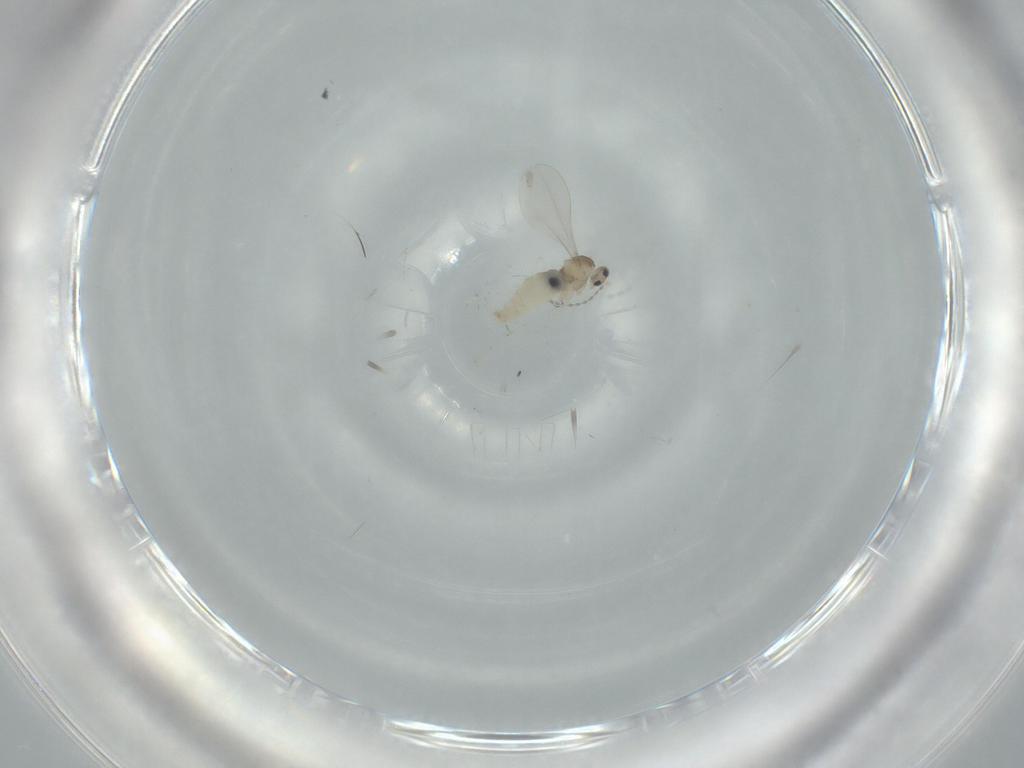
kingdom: Animalia
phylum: Arthropoda
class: Insecta
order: Diptera
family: Cecidomyiidae
